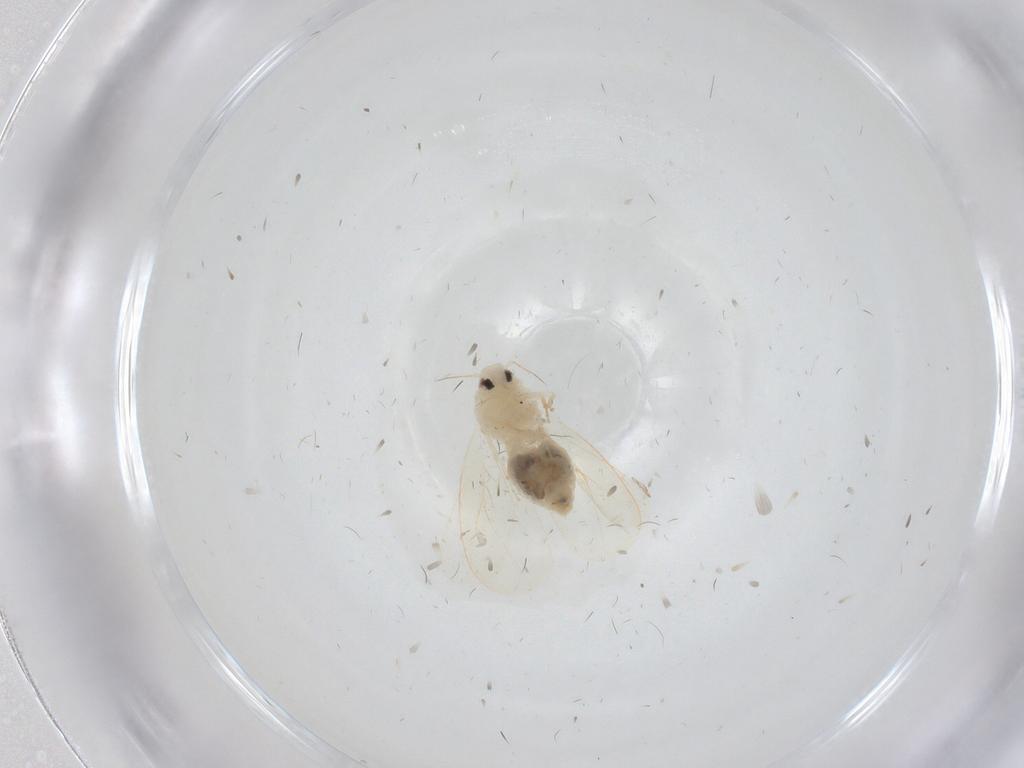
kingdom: Animalia
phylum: Arthropoda
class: Insecta
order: Hemiptera
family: Aleyrodidae
